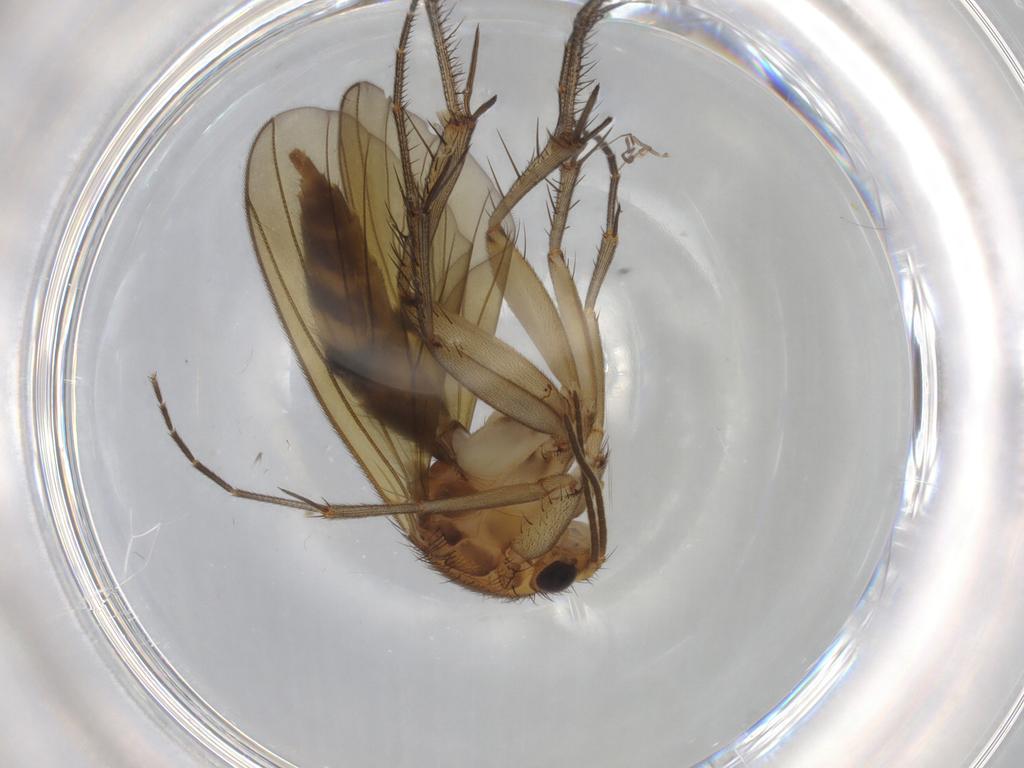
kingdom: Animalia
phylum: Arthropoda
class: Insecta
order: Diptera
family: Mycetophilidae
